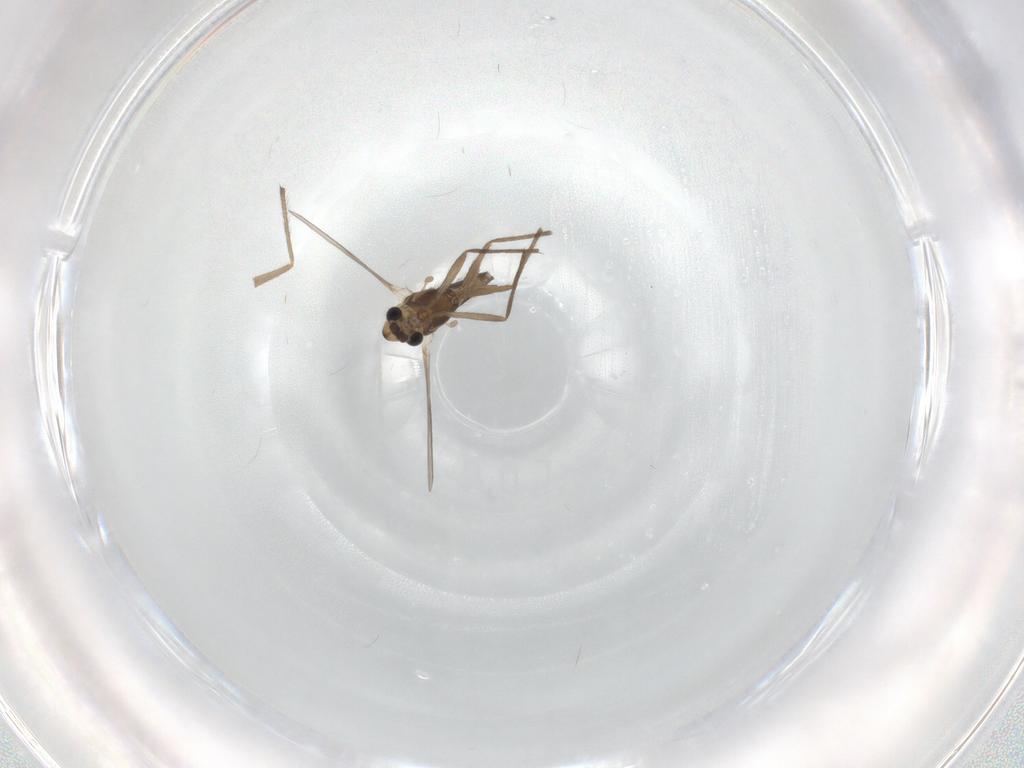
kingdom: Animalia
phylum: Arthropoda
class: Insecta
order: Diptera
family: Chironomidae
